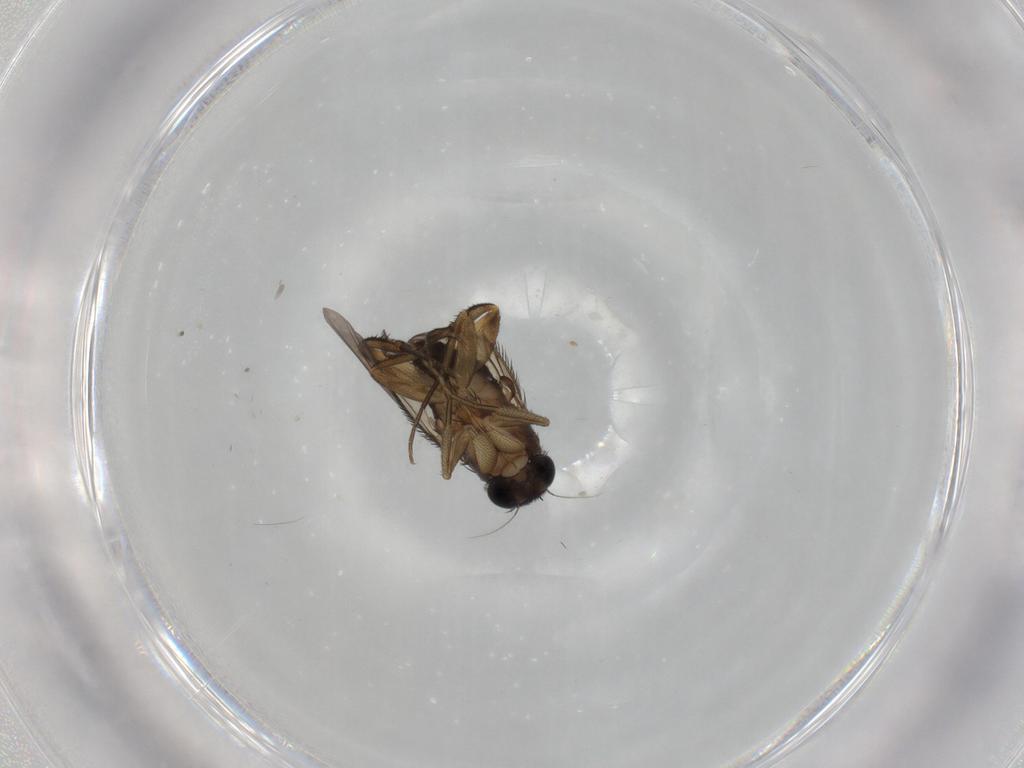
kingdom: Animalia
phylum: Arthropoda
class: Insecta
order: Diptera
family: Phoridae
